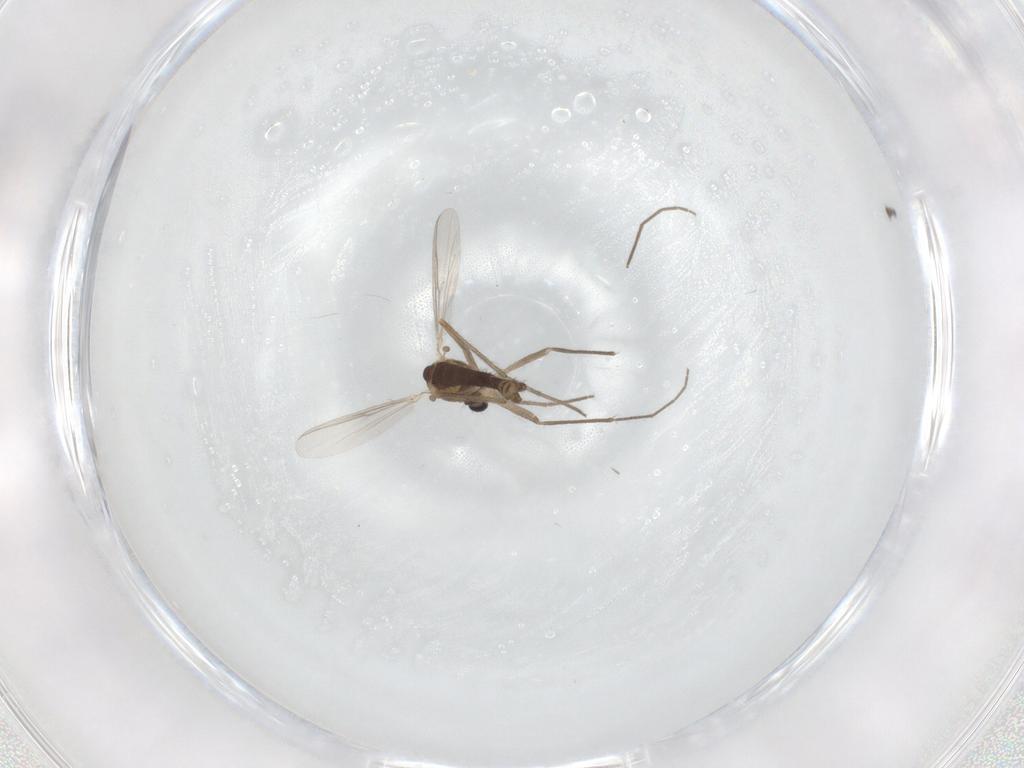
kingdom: Animalia
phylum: Arthropoda
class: Insecta
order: Diptera
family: Chironomidae
